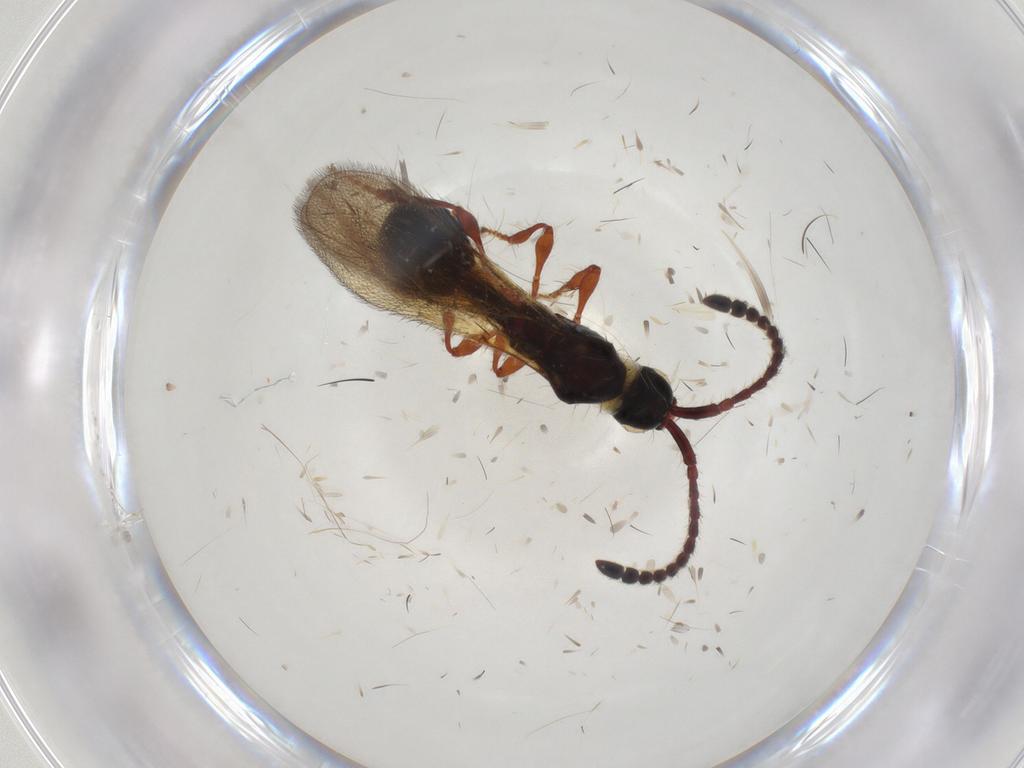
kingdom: Animalia
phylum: Arthropoda
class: Insecta
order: Hymenoptera
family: Diapriidae
